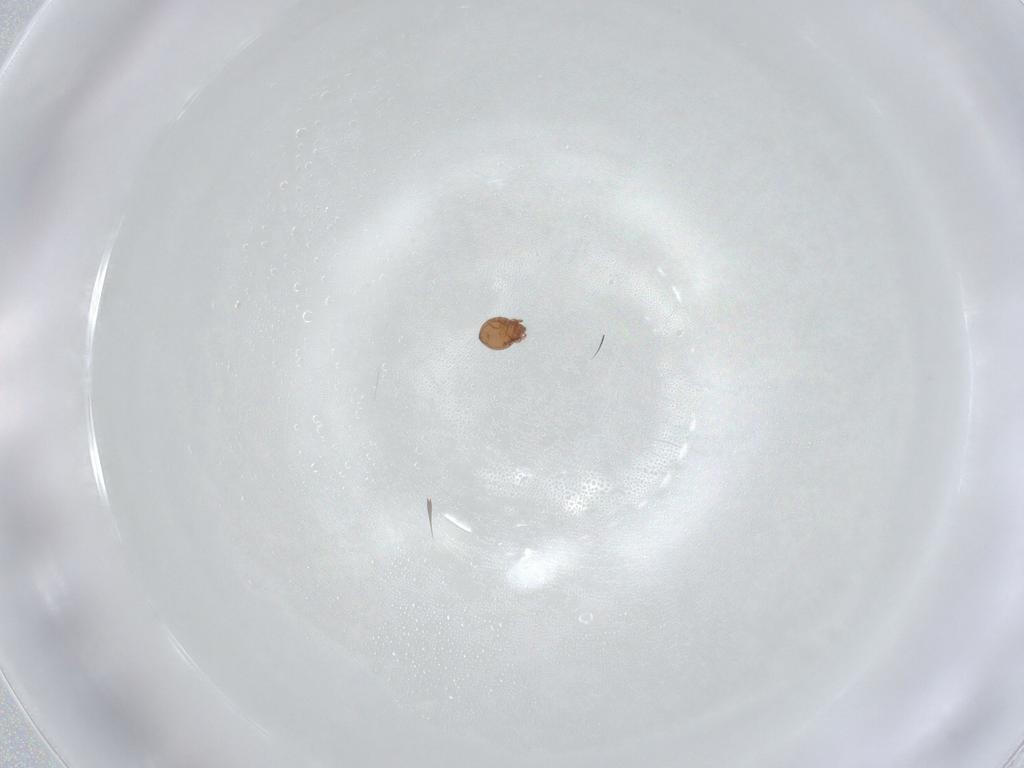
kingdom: Animalia
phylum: Arthropoda
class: Arachnida
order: Sarcoptiformes
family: Scheloribatidae
